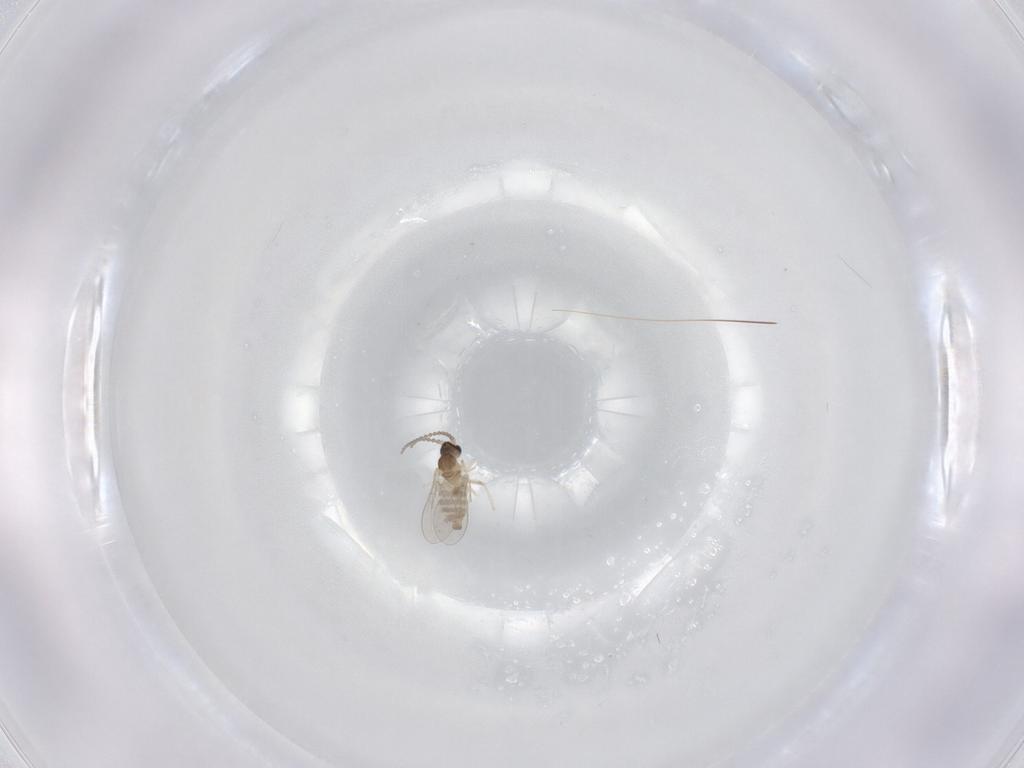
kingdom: Animalia
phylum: Arthropoda
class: Insecta
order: Diptera
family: Cecidomyiidae
